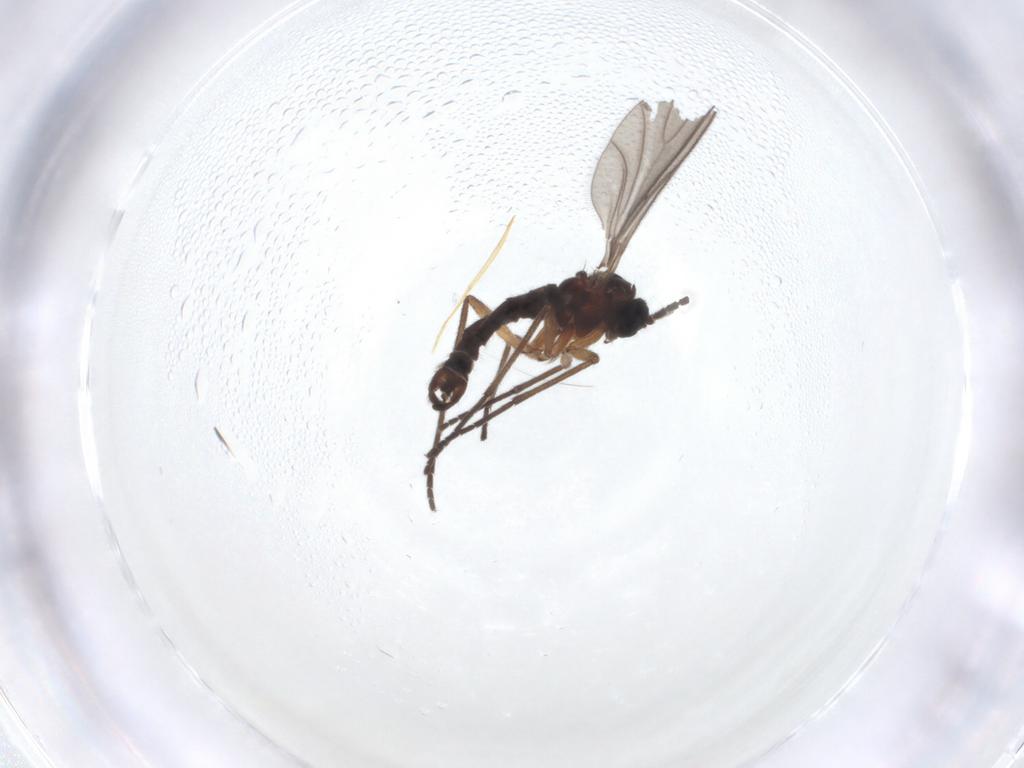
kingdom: Animalia
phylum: Arthropoda
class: Insecta
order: Diptera
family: Sciaridae
